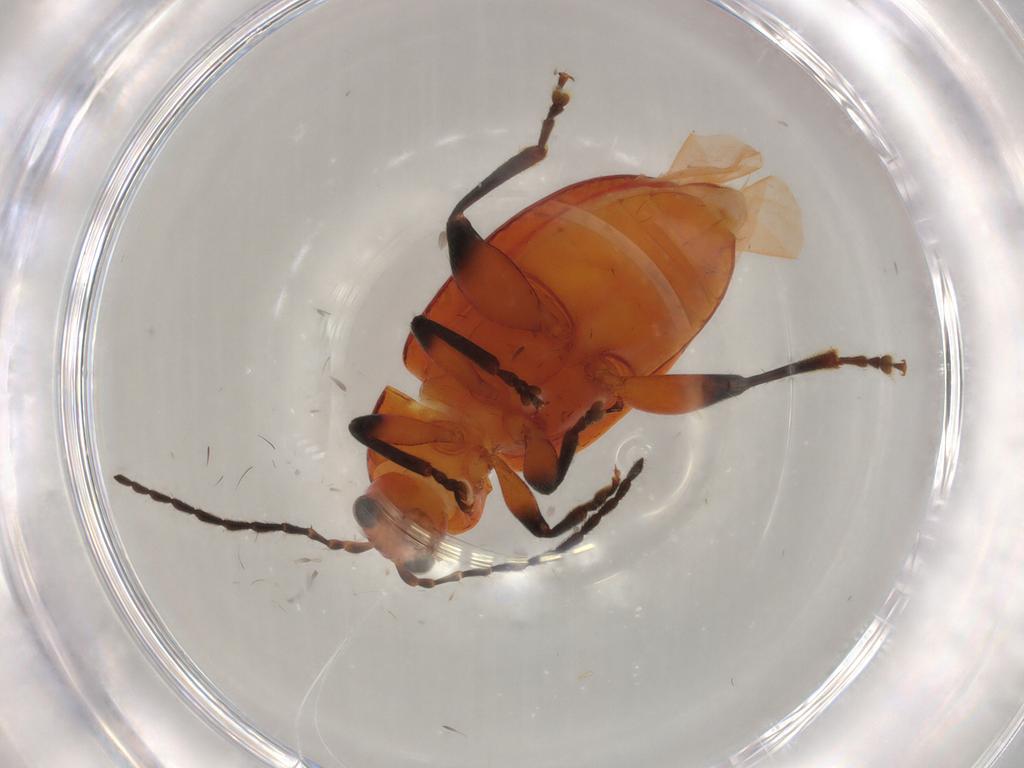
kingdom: Animalia
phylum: Arthropoda
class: Insecta
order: Coleoptera
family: Chrysomelidae
